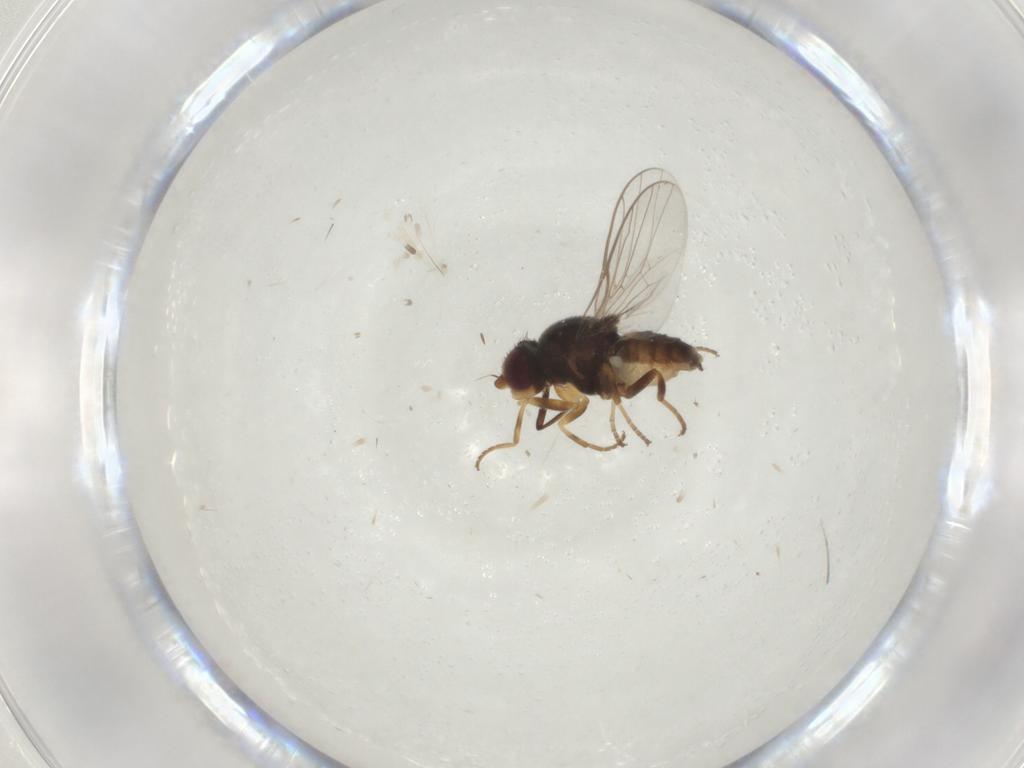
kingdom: Animalia
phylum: Arthropoda
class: Insecta
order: Diptera
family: Chloropidae
